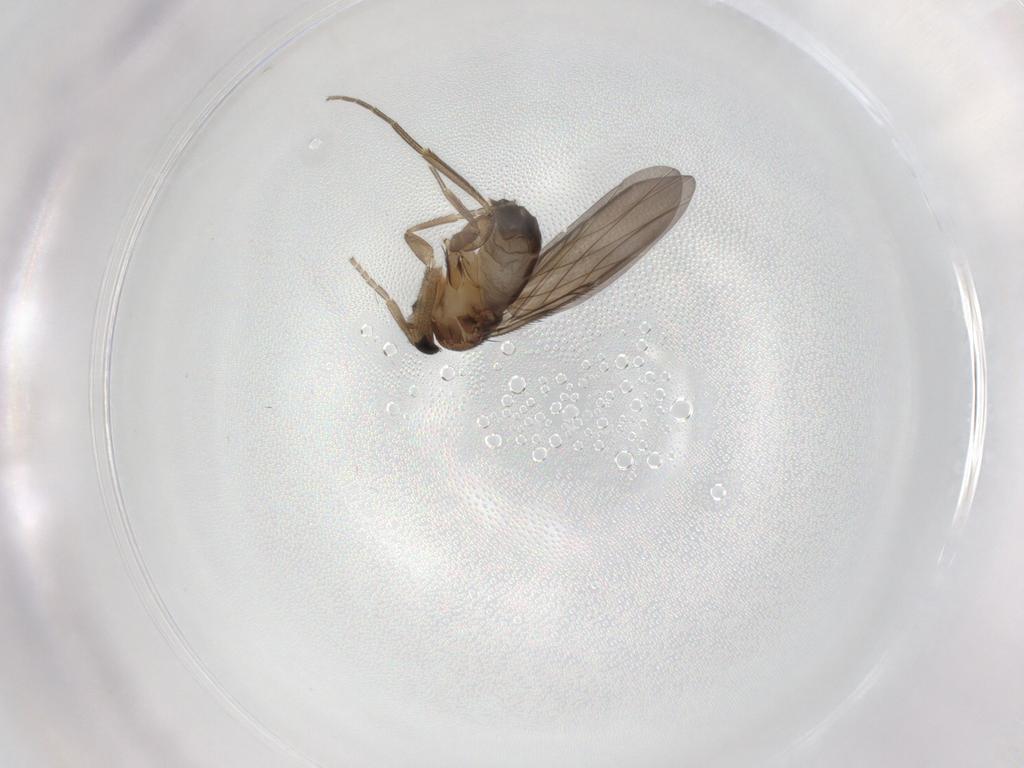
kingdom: Animalia
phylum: Arthropoda
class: Insecta
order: Diptera
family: Phoridae
